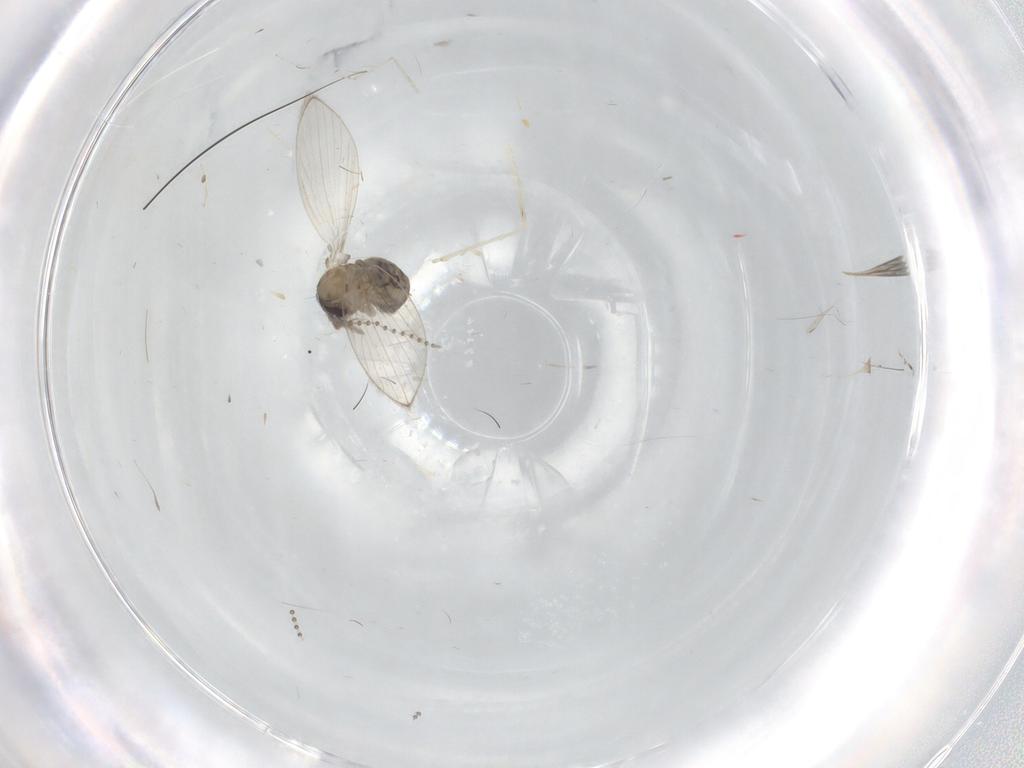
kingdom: Animalia
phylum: Arthropoda
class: Insecta
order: Diptera
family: Psychodidae
